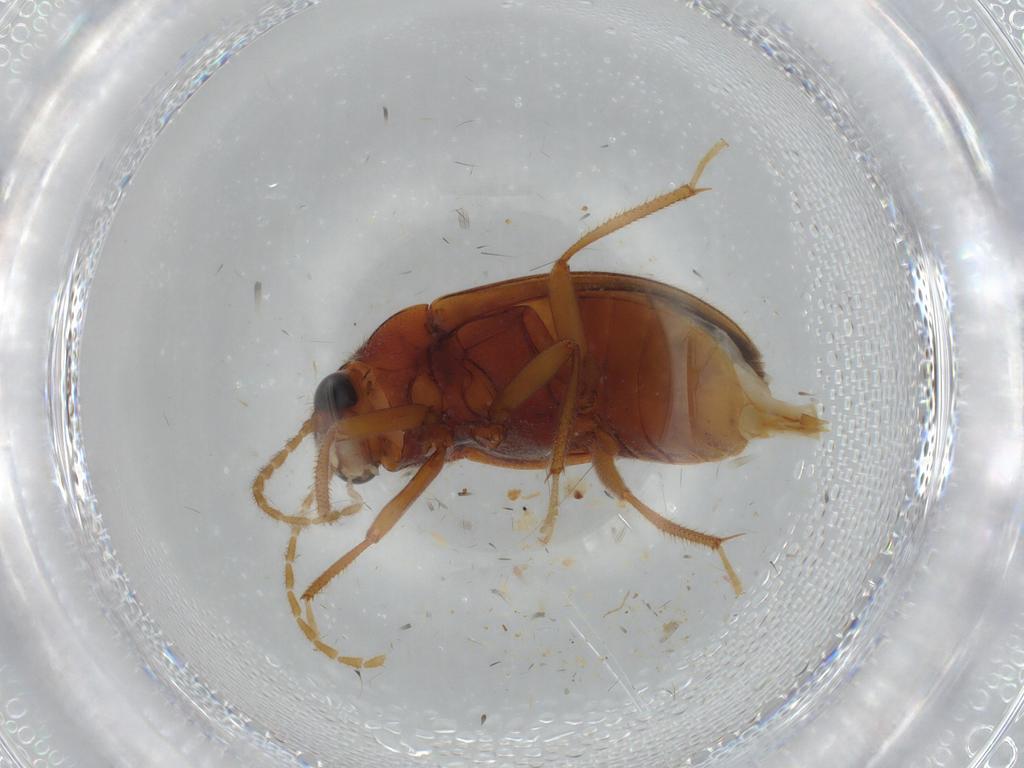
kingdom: Animalia
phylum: Arthropoda
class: Insecta
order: Coleoptera
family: Ptilodactylidae
